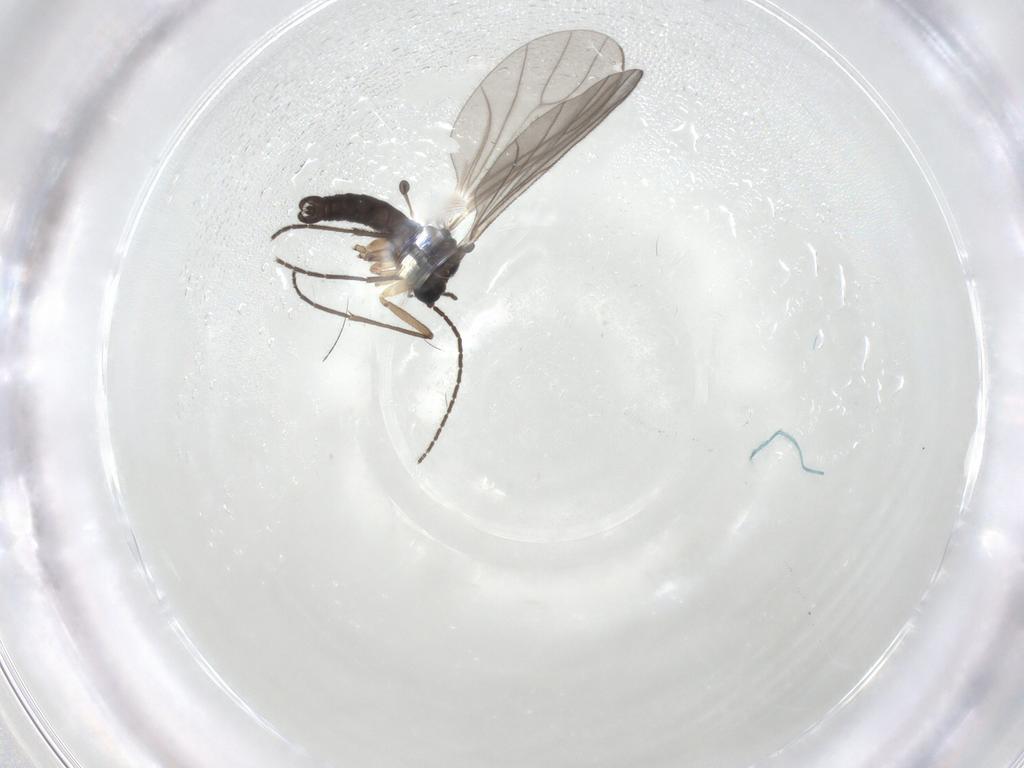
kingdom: Animalia
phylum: Arthropoda
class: Insecta
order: Diptera
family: Sciaridae
